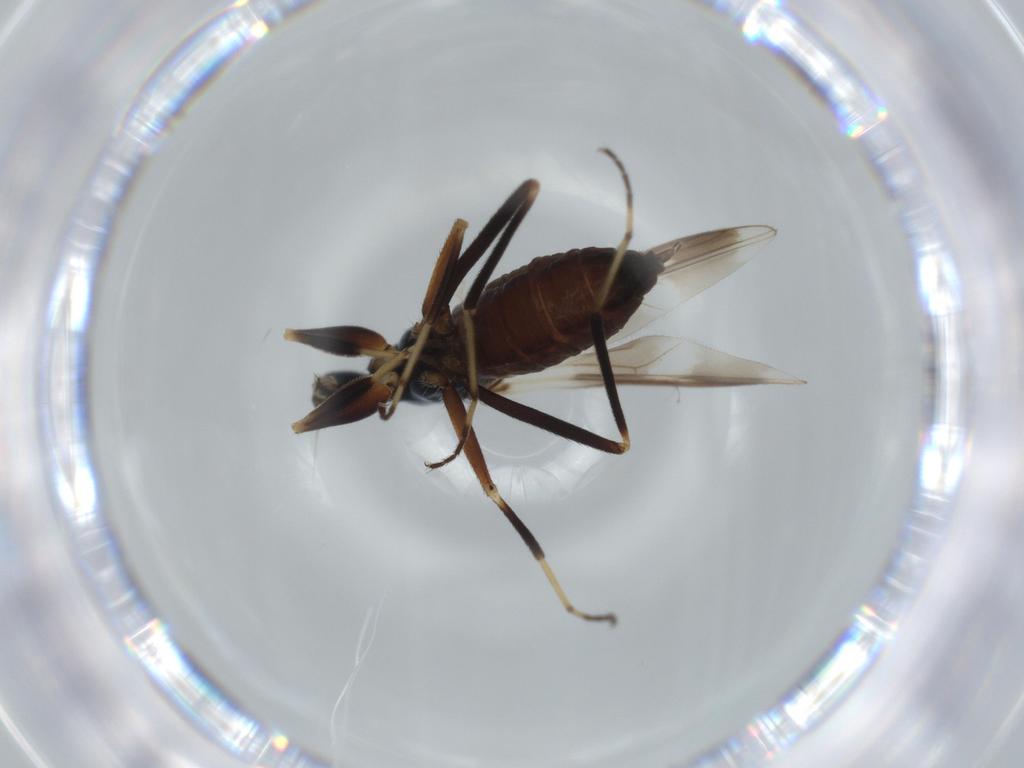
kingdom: Animalia
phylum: Arthropoda
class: Insecta
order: Diptera
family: Hybotidae
